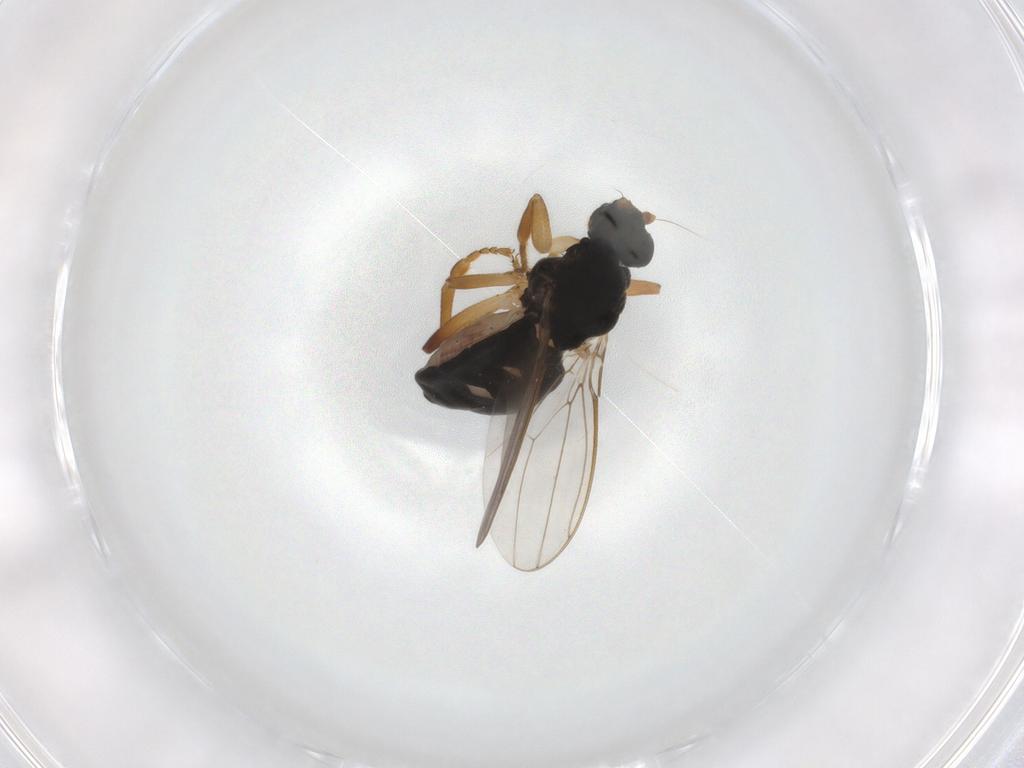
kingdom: Animalia
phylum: Arthropoda
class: Insecta
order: Diptera
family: Sphaeroceridae
